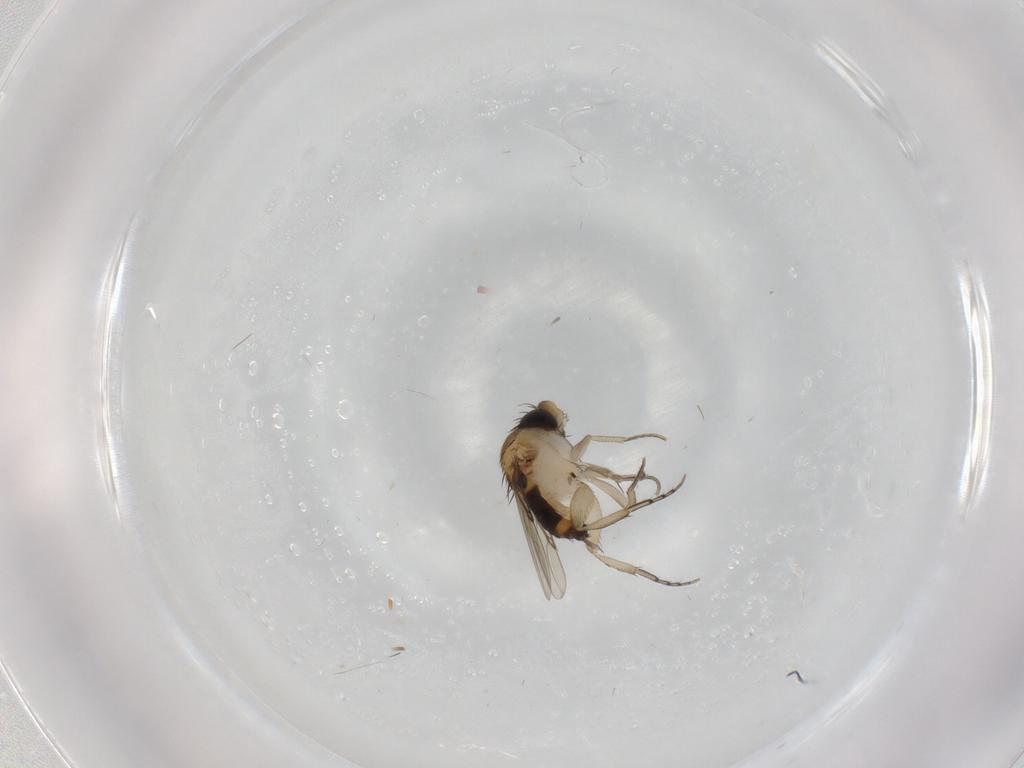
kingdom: Animalia
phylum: Arthropoda
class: Insecta
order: Diptera
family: Phoridae
